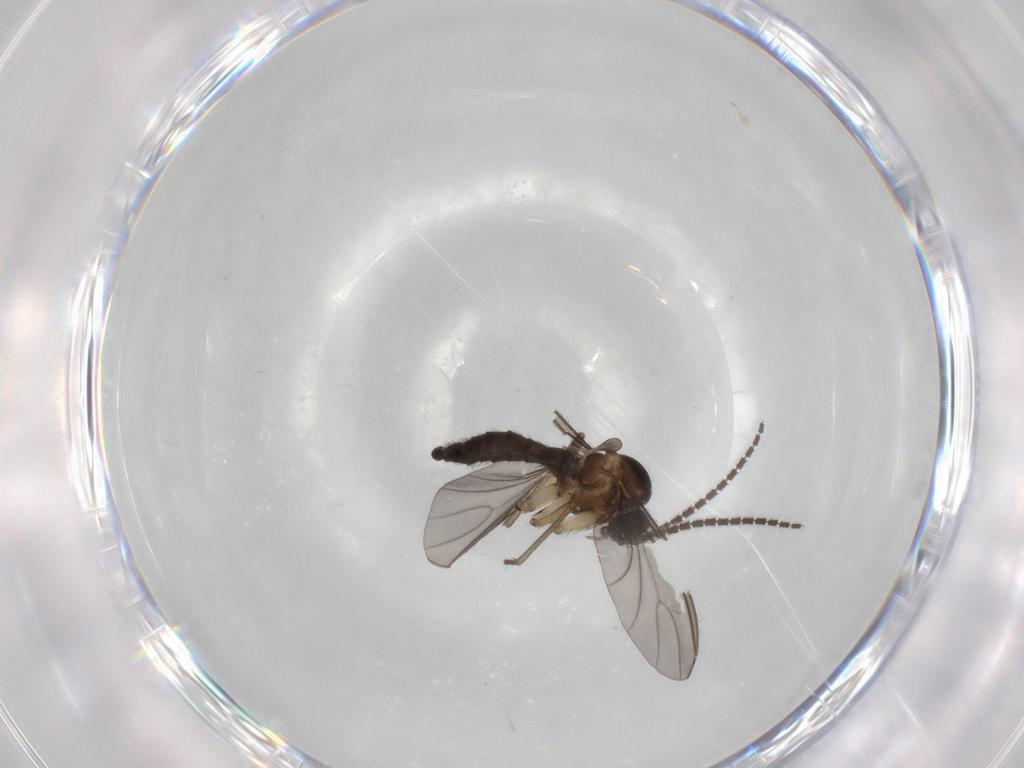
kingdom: Animalia
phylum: Arthropoda
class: Insecta
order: Diptera
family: Sciaridae
